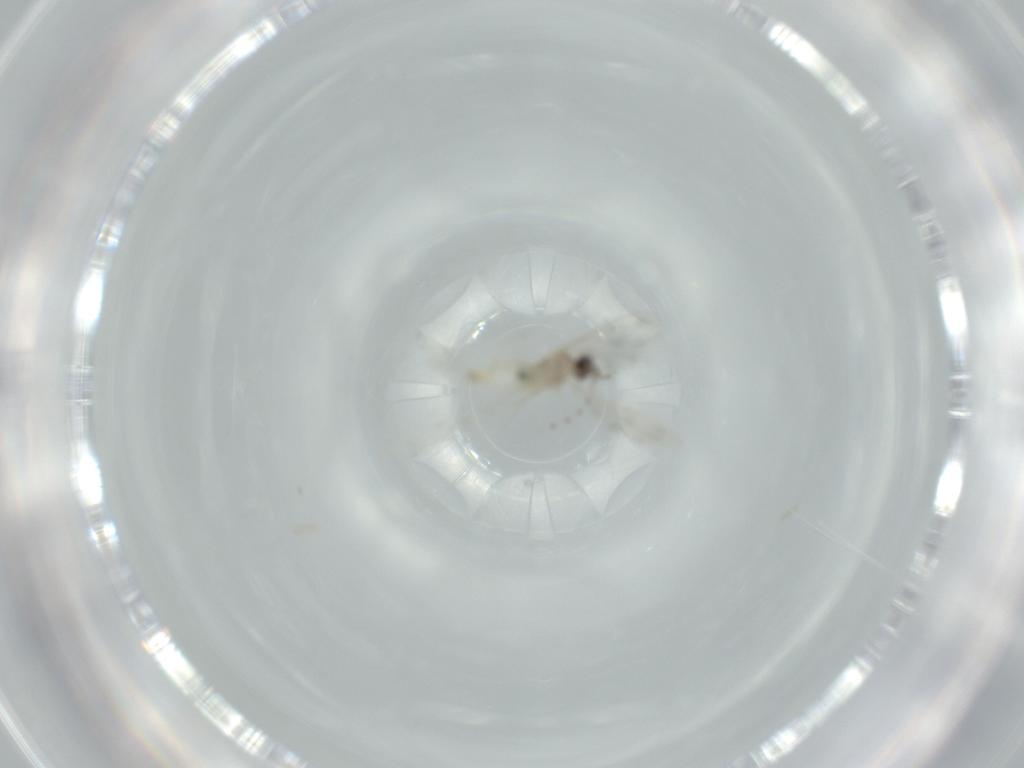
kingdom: Animalia
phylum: Arthropoda
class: Insecta
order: Diptera
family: Cecidomyiidae
